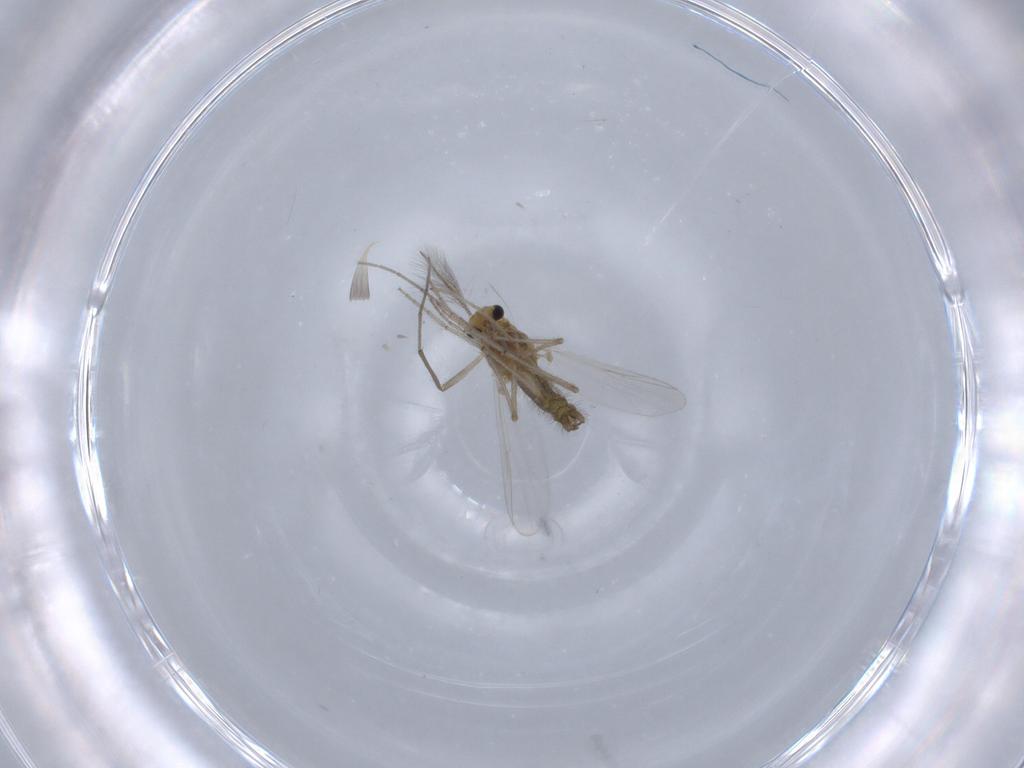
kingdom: Animalia
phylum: Arthropoda
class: Insecta
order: Diptera
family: Chironomidae
